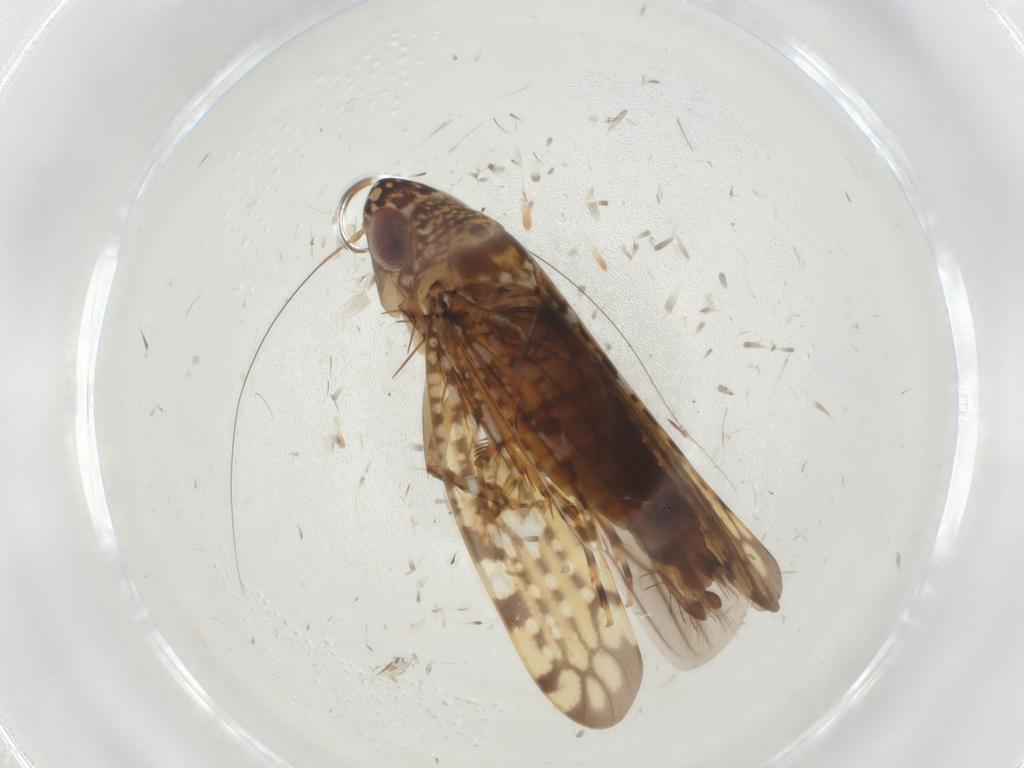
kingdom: Animalia
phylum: Arthropoda
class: Insecta
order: Hemiptera
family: Cicadellidae
